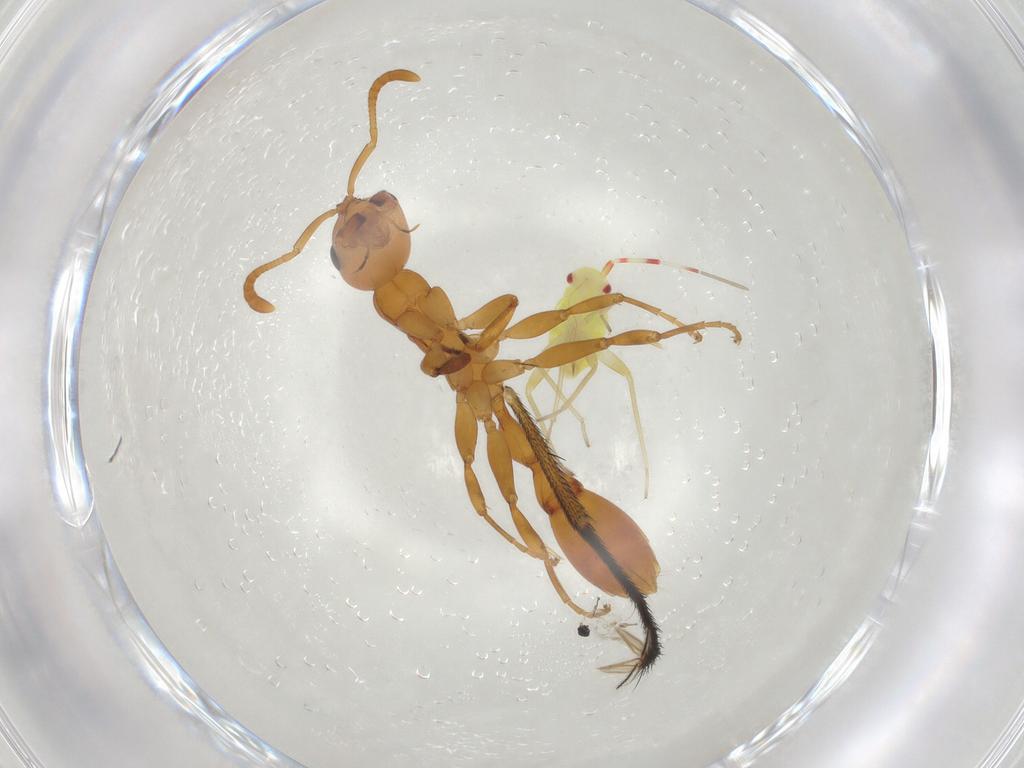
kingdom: Animalia
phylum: Arthropoda
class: Insecta
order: Hemiptera
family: Miridae
